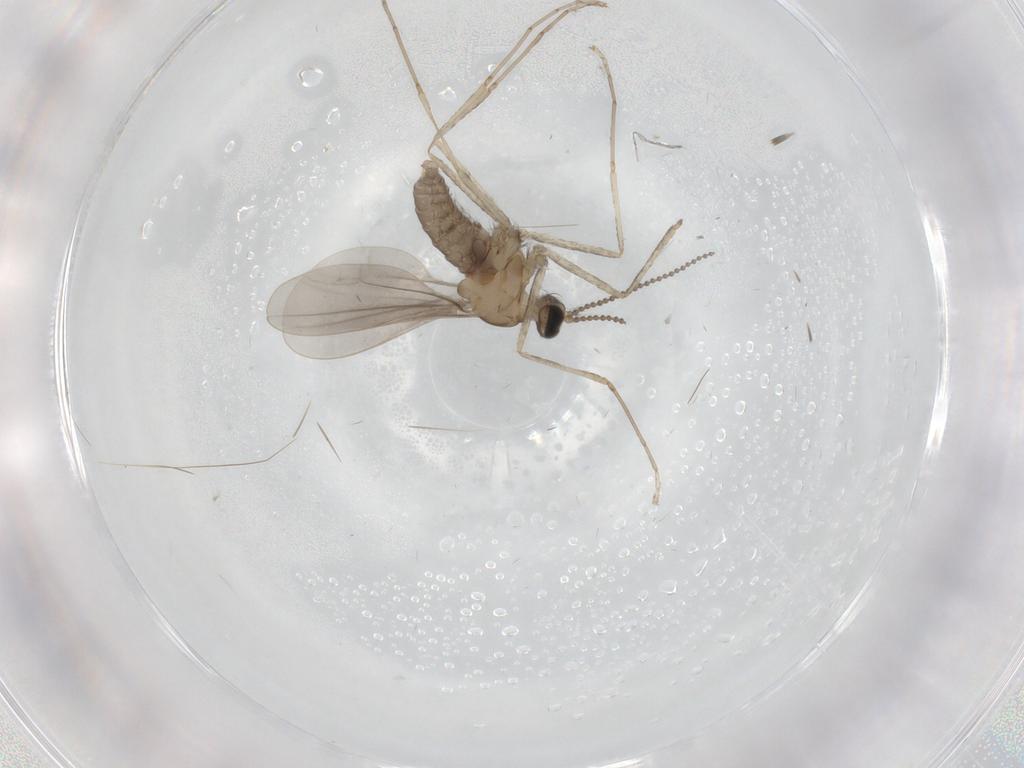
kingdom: Animalia
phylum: Arthropoda
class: Insecta
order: Diptera
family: Cecidomyiidae
